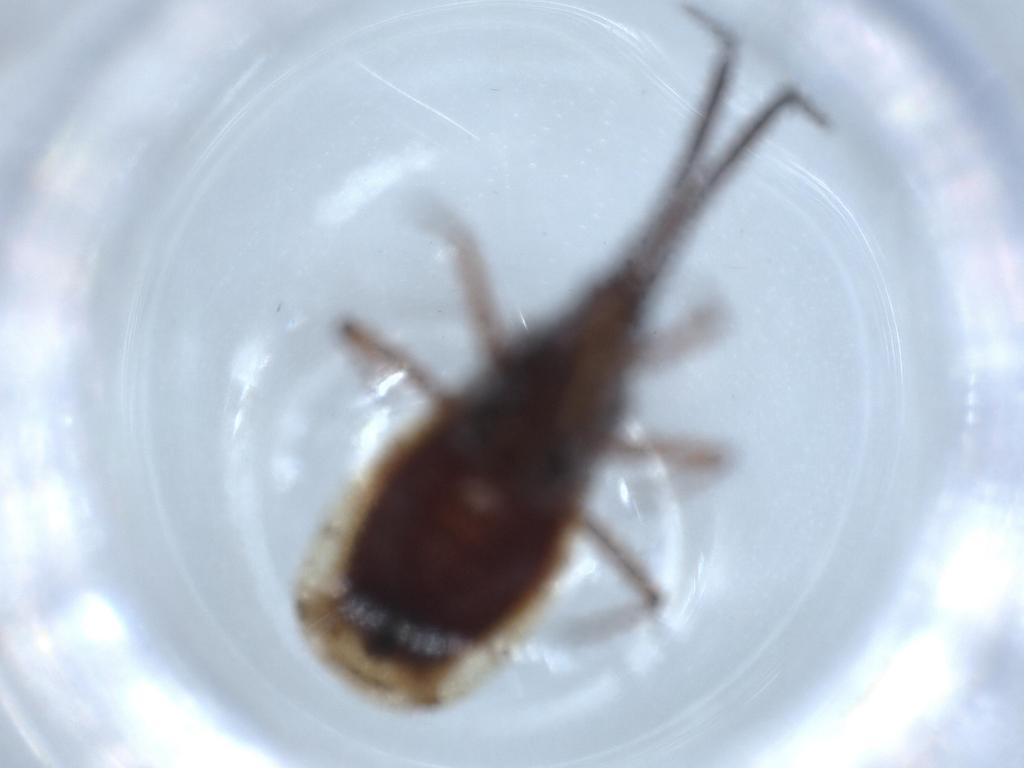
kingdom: Animalia
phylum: Arthropoda
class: Insecta
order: Hemiptera
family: Tingidae
